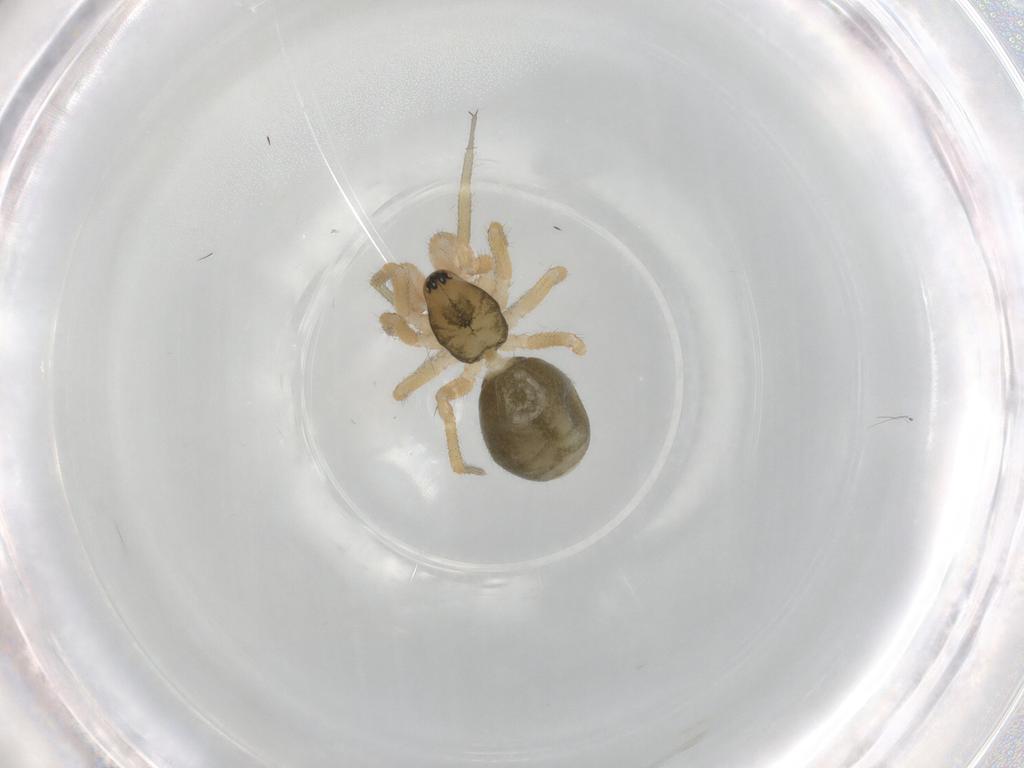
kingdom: Animalia
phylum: Arthropoda
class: Arachnida
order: Araneae
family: Linyphiidae
